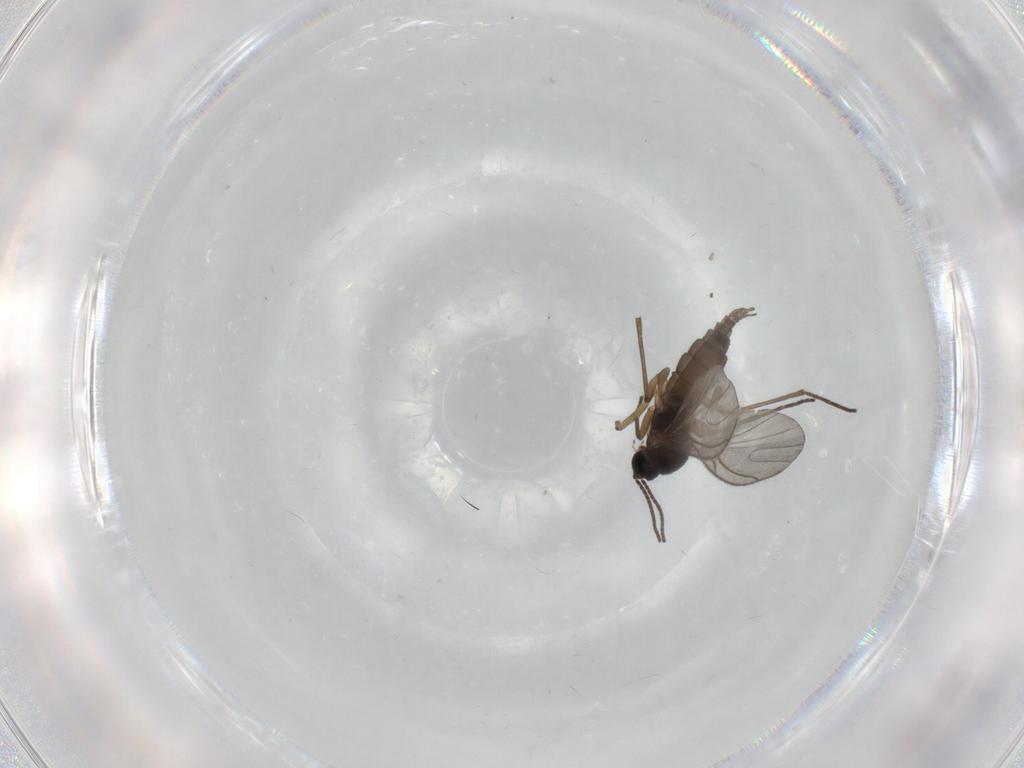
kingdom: Animalia
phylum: Arthropoda
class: Insecta
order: Diptera
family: Sciaridae
